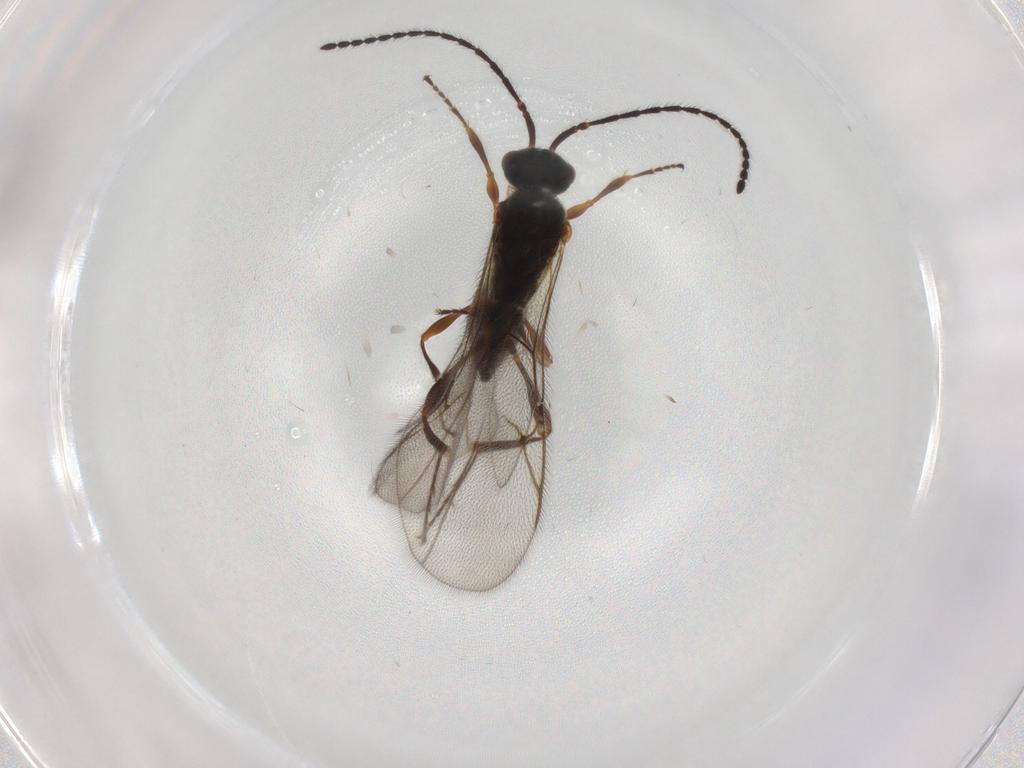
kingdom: Animalia
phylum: Arthropoda
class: Insecta
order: Hymenoptera
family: Diapriidae
